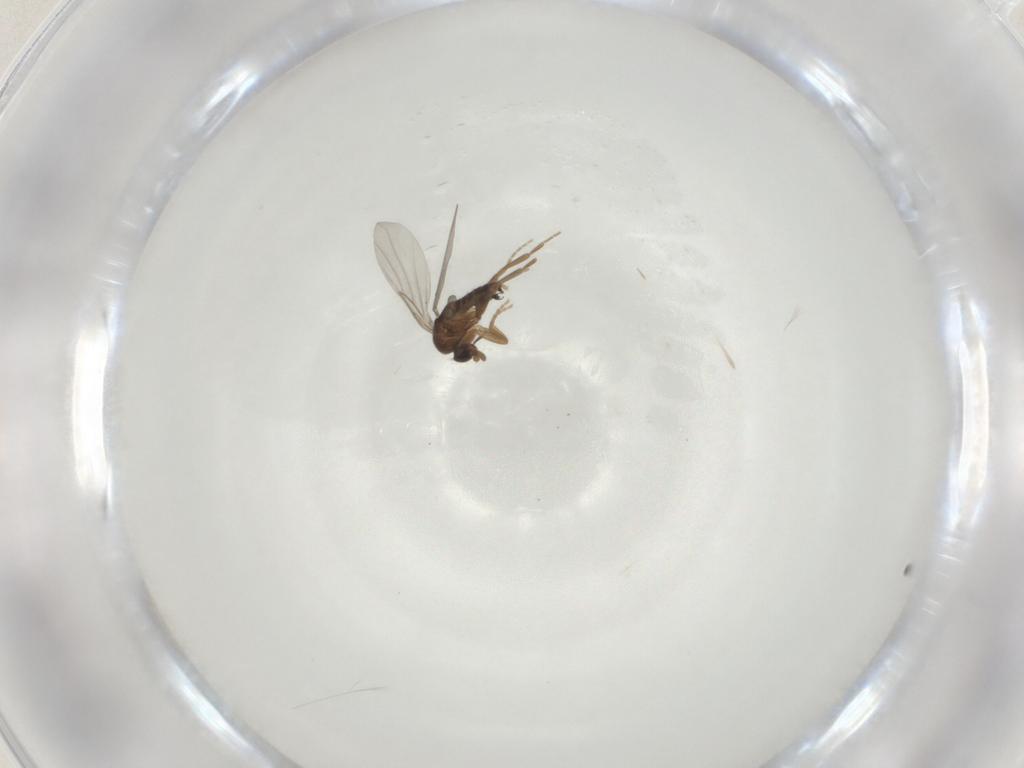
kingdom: Animalia
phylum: Arthropoda
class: Insecta
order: Diptera
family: Phoridae
